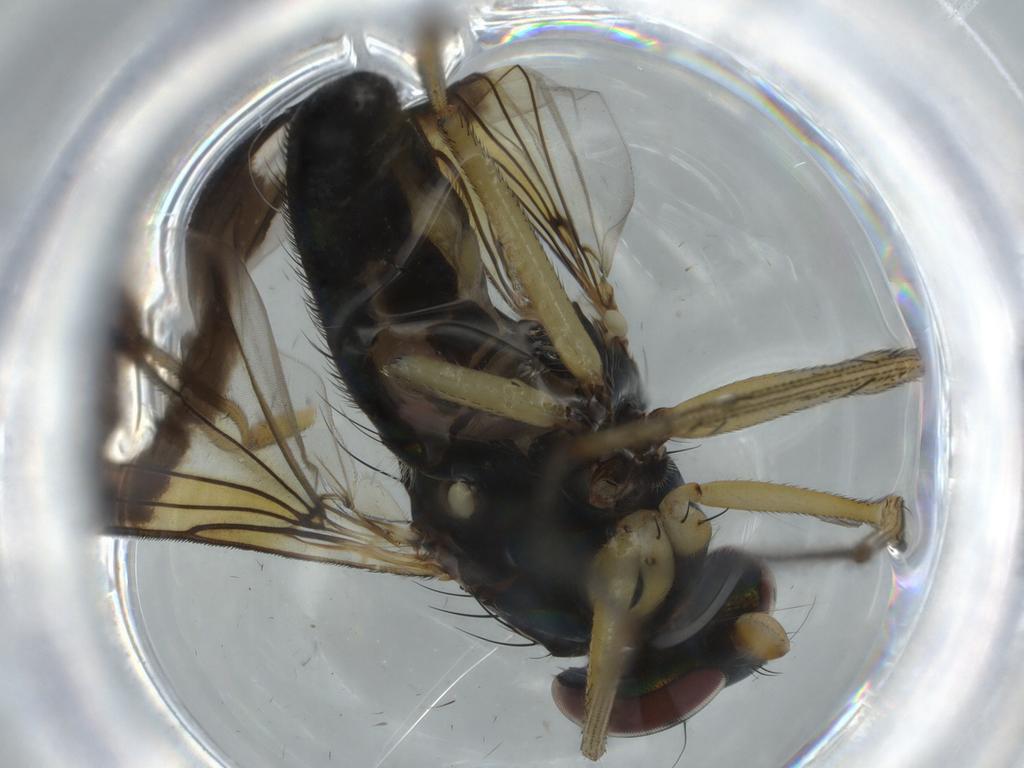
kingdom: Animalia
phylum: Arthropoda
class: Insecta
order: Diptera
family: Dolichopodidae
